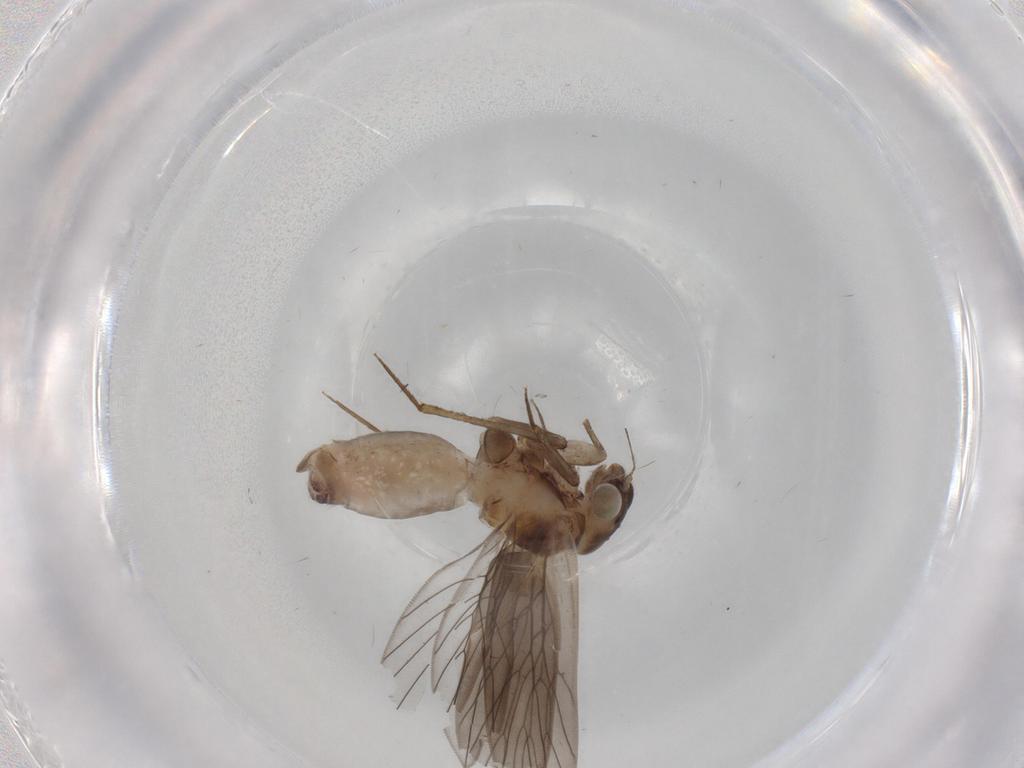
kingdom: Animalia
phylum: Arthropoda
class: Insecta
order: Psocodea
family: Lepidopsocidae
